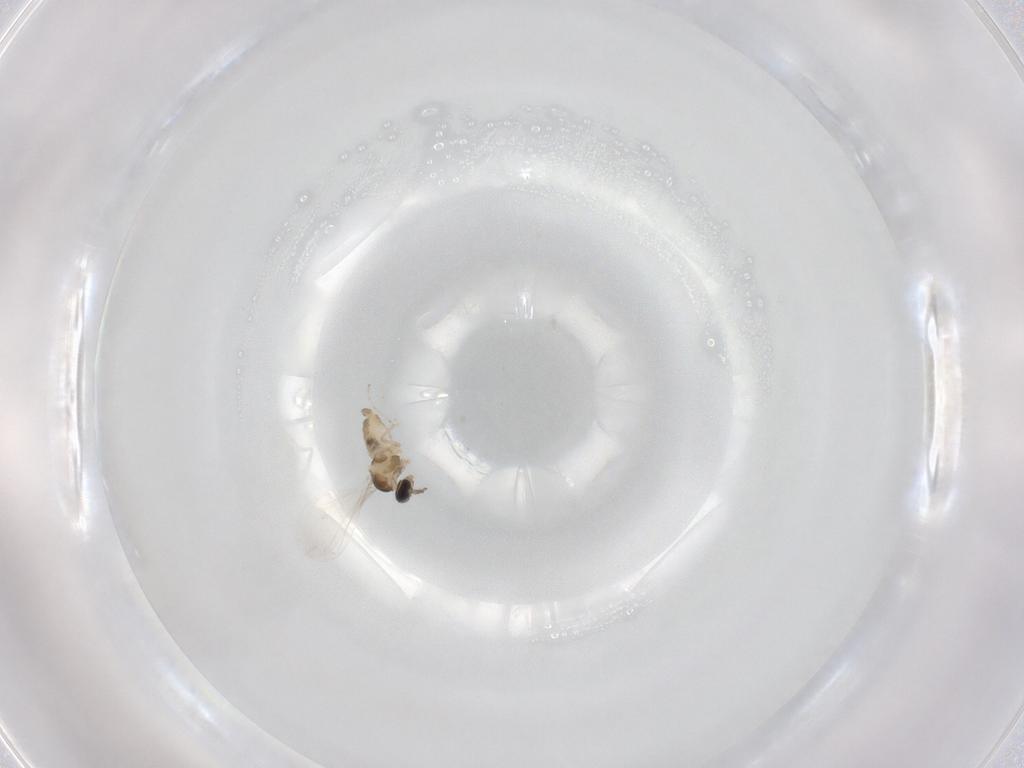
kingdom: Animalia
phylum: Arthropoda
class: Insecta
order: Diptera
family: Cecidomyiidae
